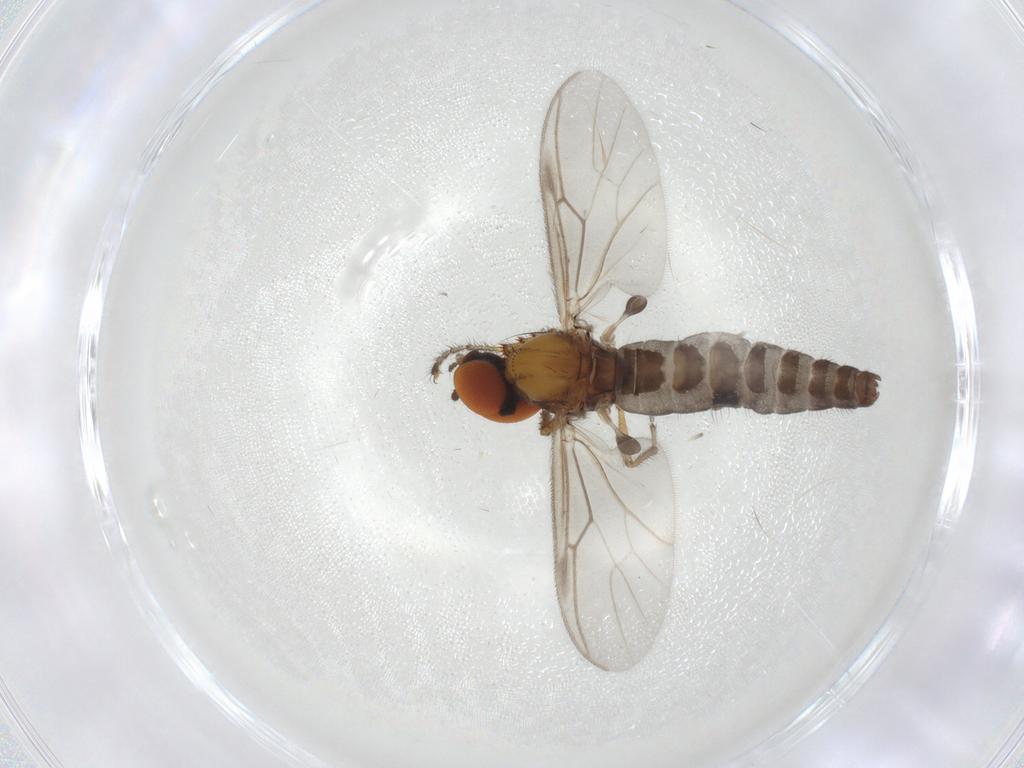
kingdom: Animalia
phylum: Arthropoda
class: Insecta
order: Diptera
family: Bibionidae
